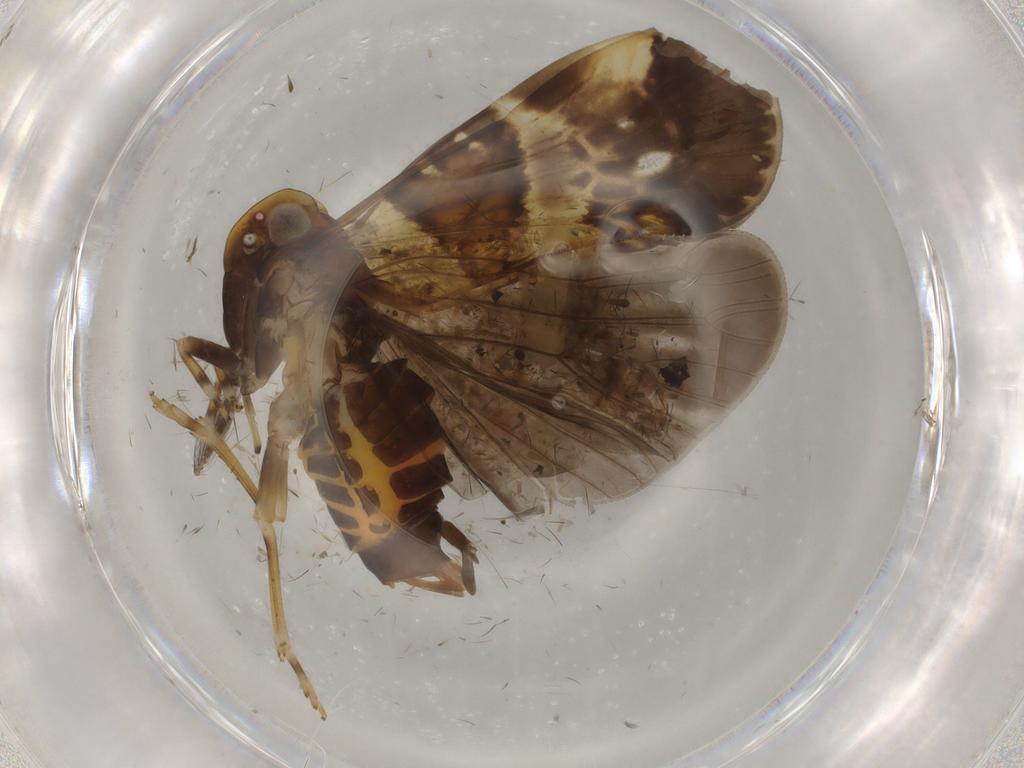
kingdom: Animalia
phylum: Arthropoda
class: Insecta
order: Hemiptera
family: Cixiidae
